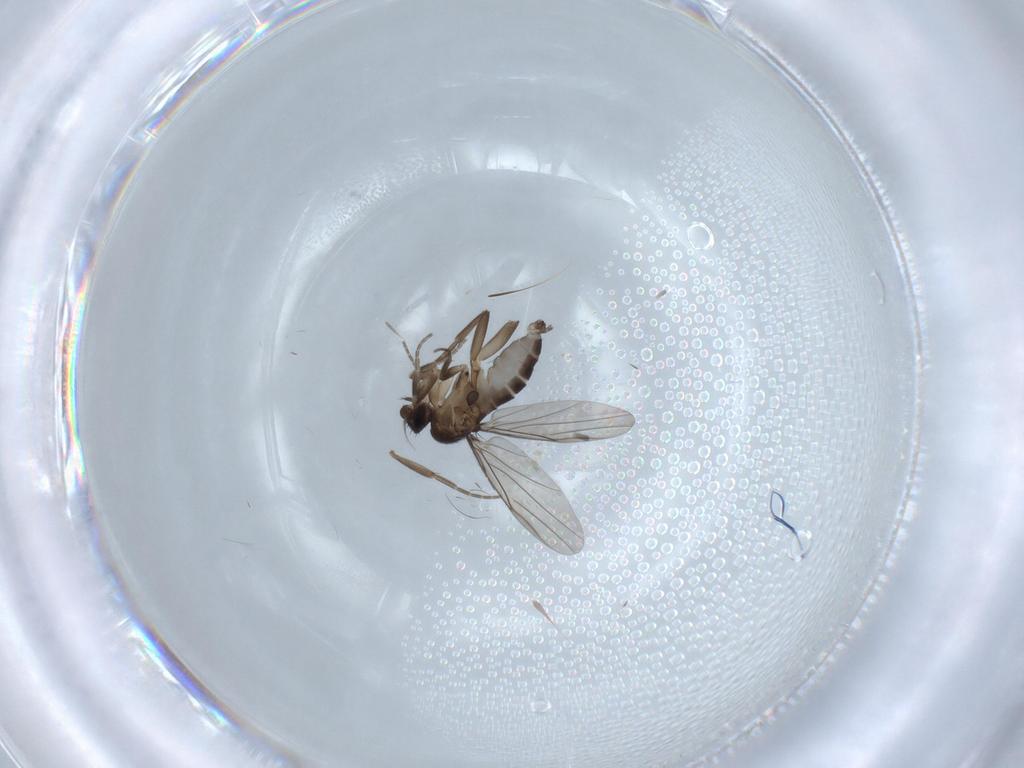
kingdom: Animalia
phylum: Arthropoda
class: Insecta
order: Diptera
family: Phoridae
